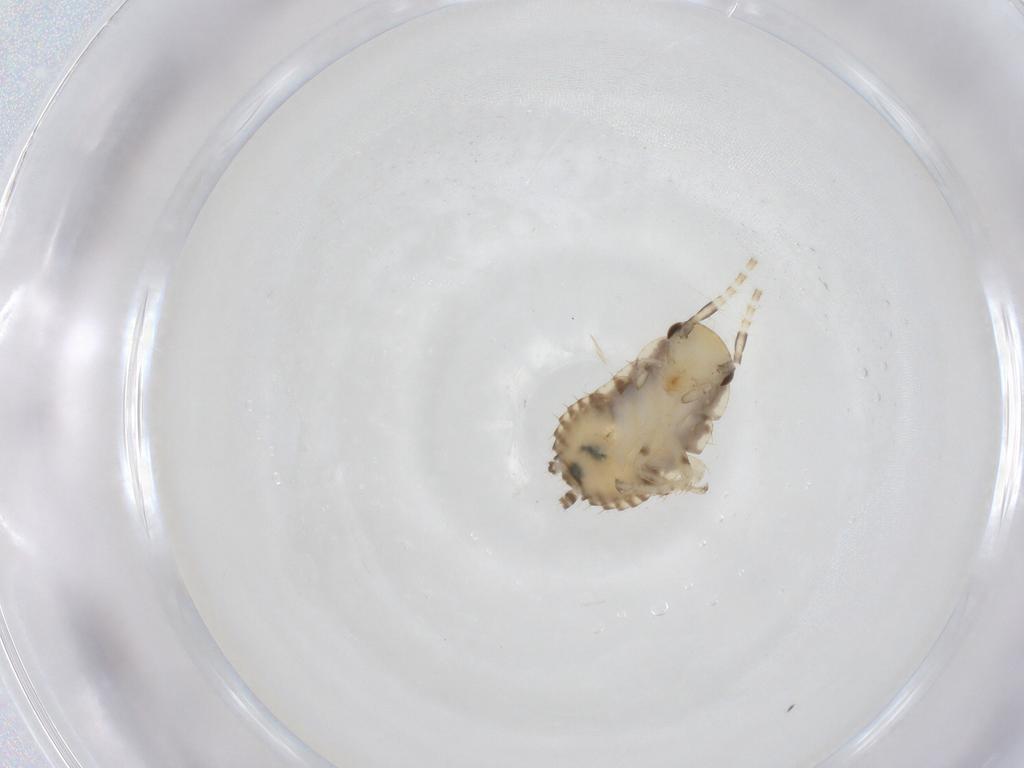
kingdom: Animalia
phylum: Arthropoda
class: Insecta
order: Blattodea
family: Ectobiidae
